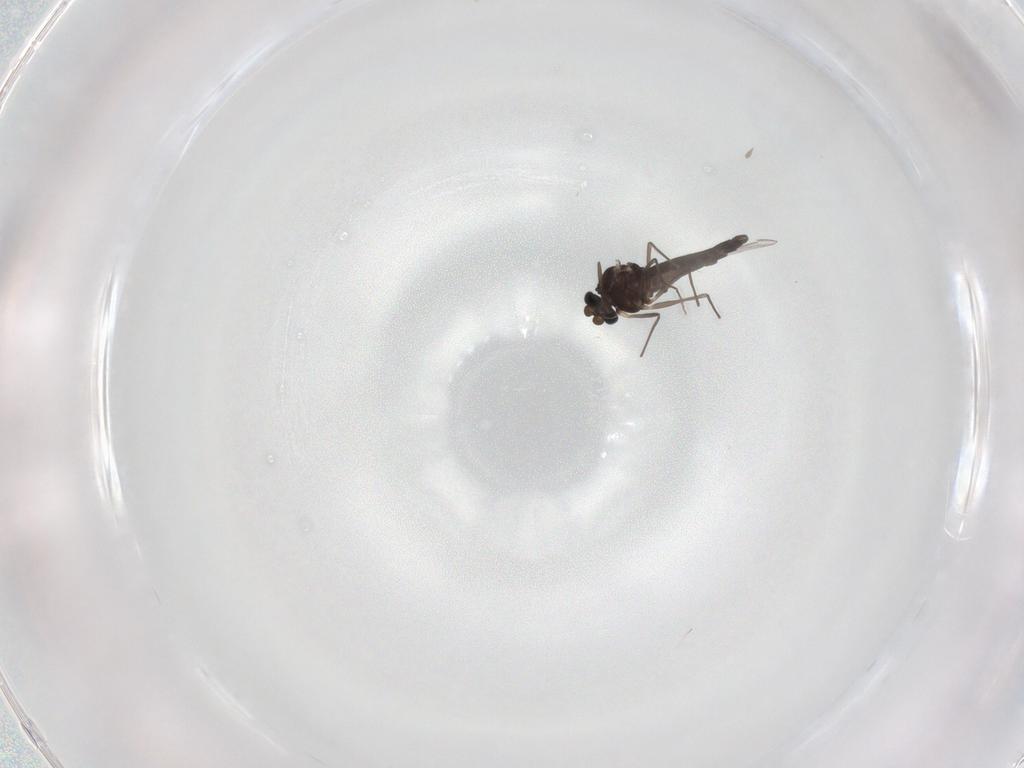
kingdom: Animalia
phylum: Arthropoda
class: Insecta
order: Diptera
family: Chironomidae
